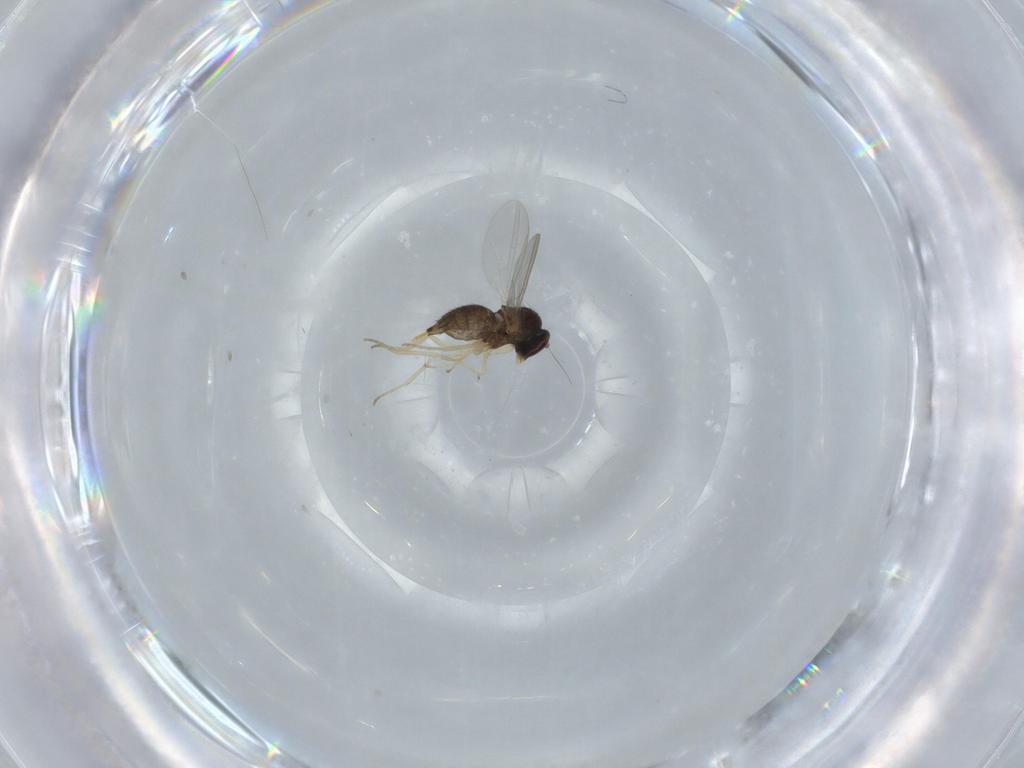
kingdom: Animalia
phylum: Arthropoda
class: Insecta
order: Diptera
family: Dolichopodidae
